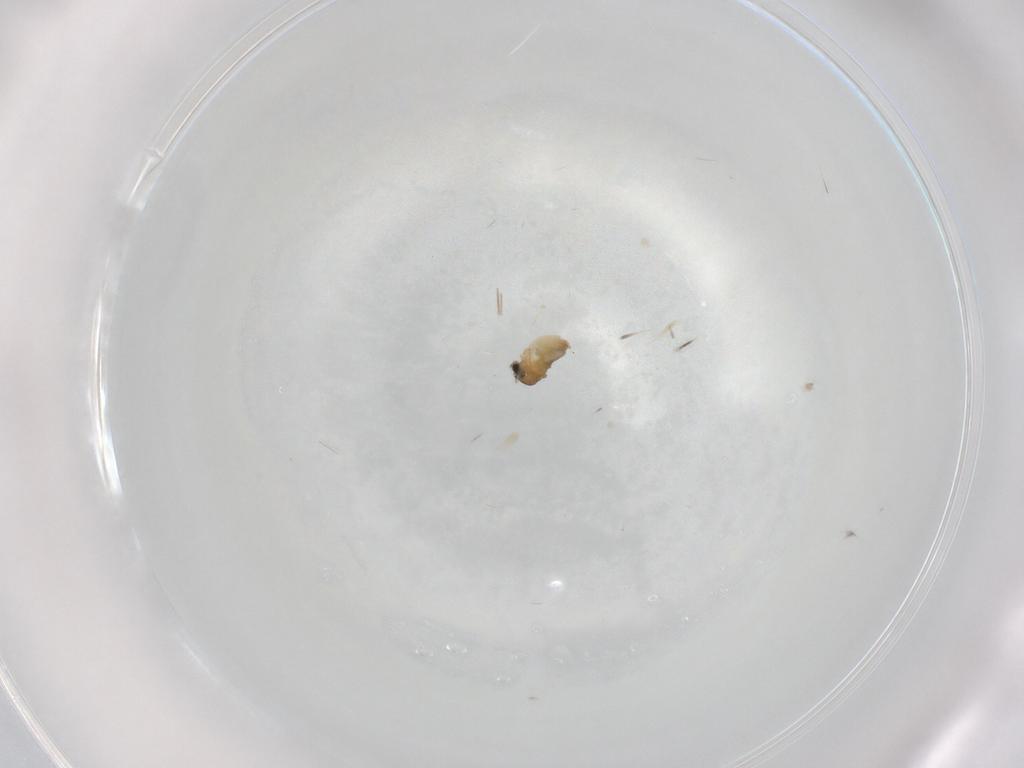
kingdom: Animalia
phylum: Arthropoda
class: Insecta
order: Diptera
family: Cecidomyiidae
